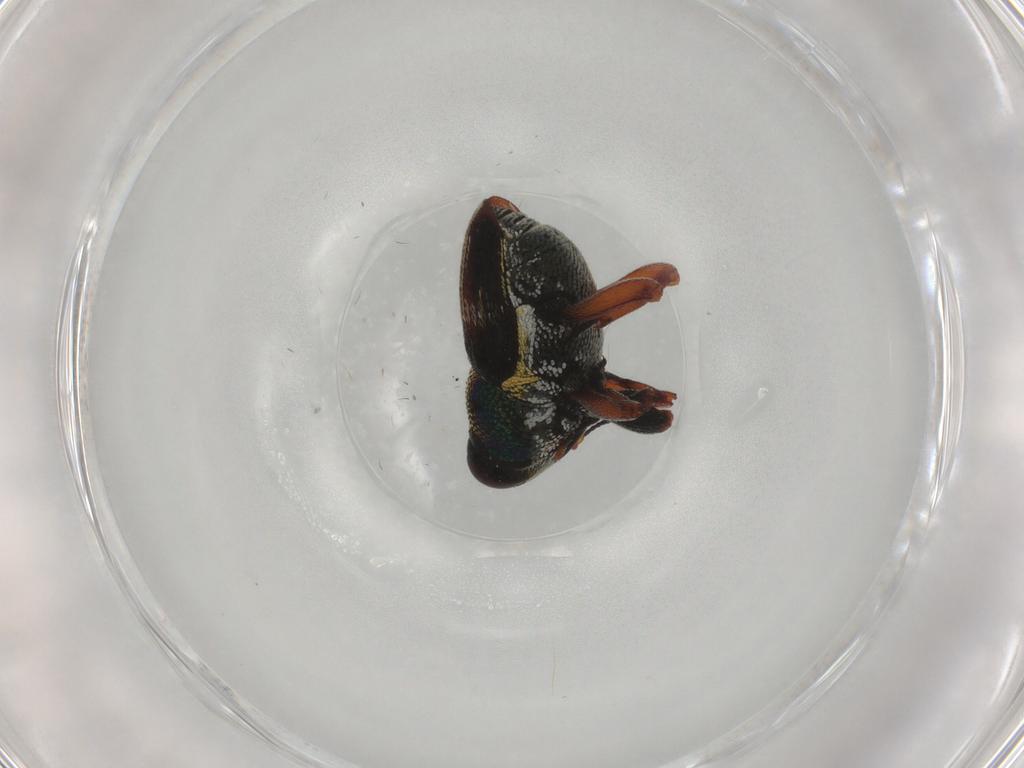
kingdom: Animalia
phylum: Arthropoda
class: Insecta
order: Coleoptera
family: Curculionidae
